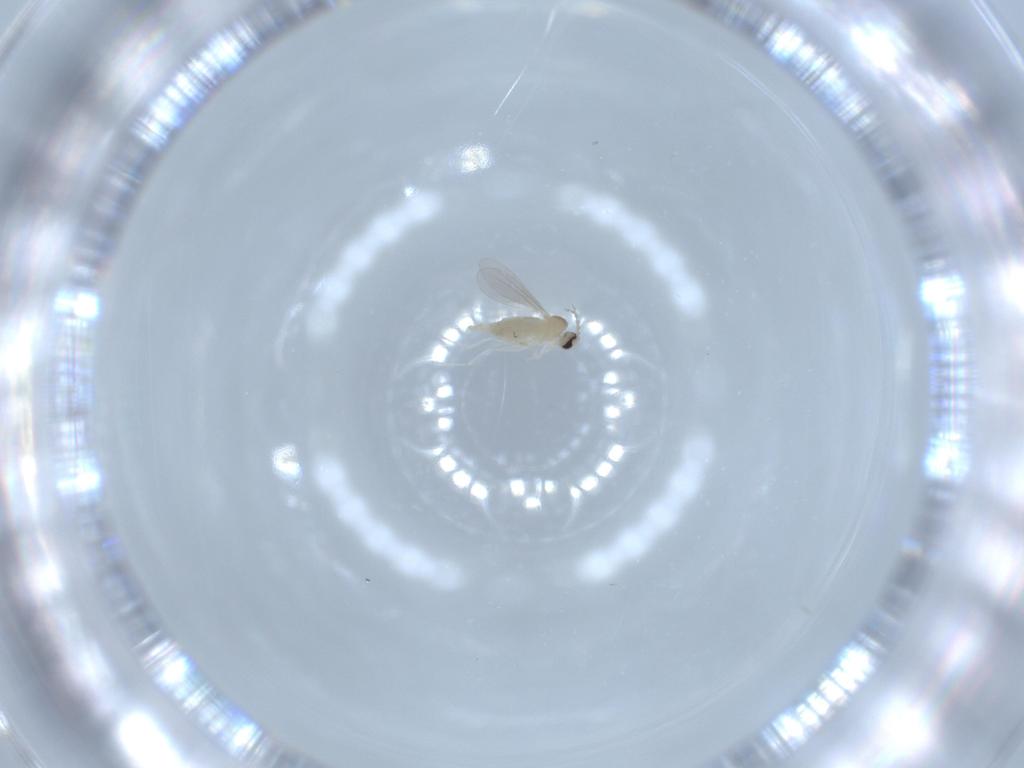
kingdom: Animalia
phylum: Arthropoda
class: Insecta
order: Diptera
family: Cecidomyiidae
